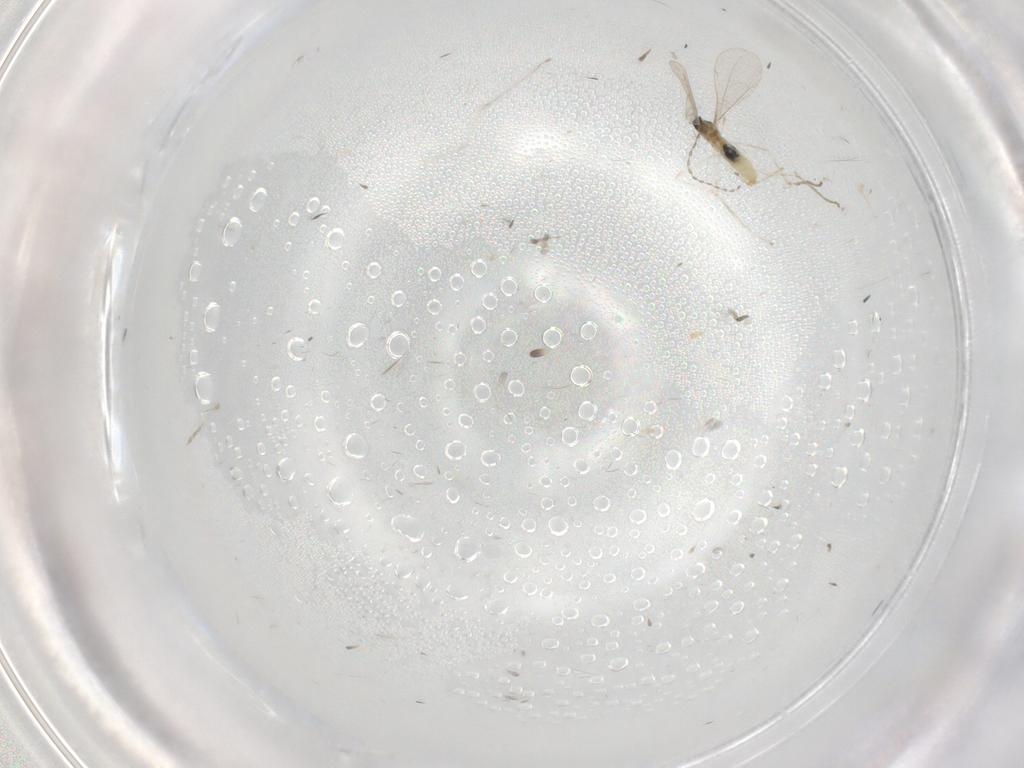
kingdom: Animalia
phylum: Arthropoda
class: Insecta
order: Diptera
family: Cecidomyiidae
